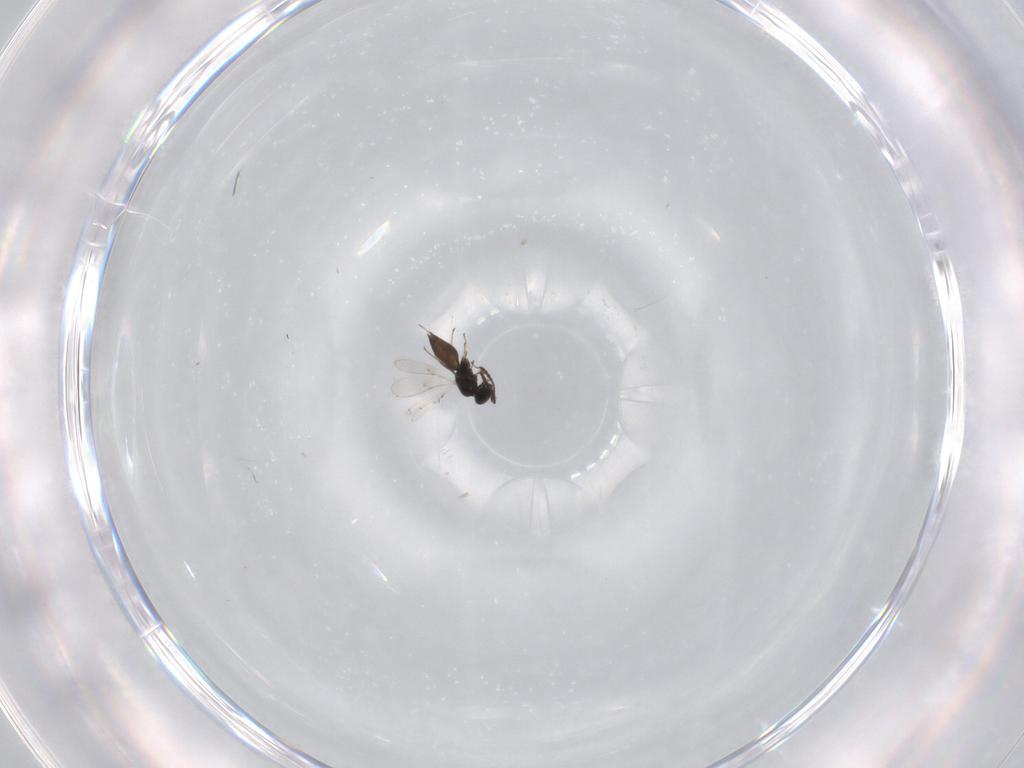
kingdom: Animalia
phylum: Arthropoda
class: Insecta
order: Hymenoptera
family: Scelionidae
